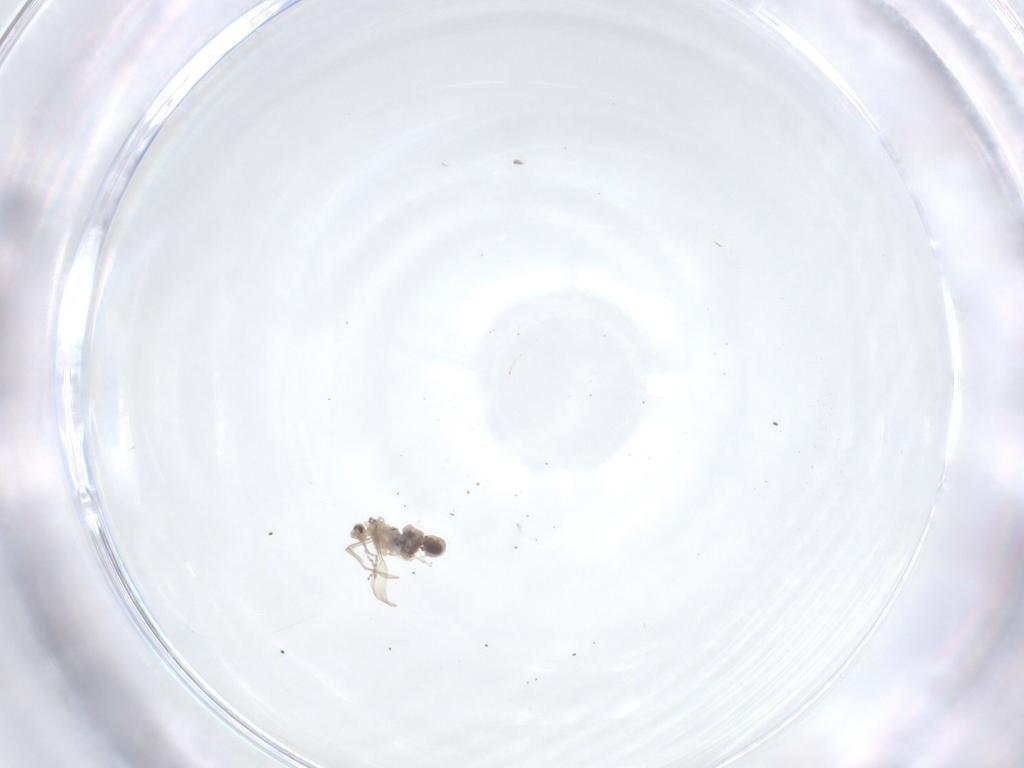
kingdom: Animalia
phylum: Arthropoda
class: Insecta
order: Diptera
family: Cecidomyiidae
